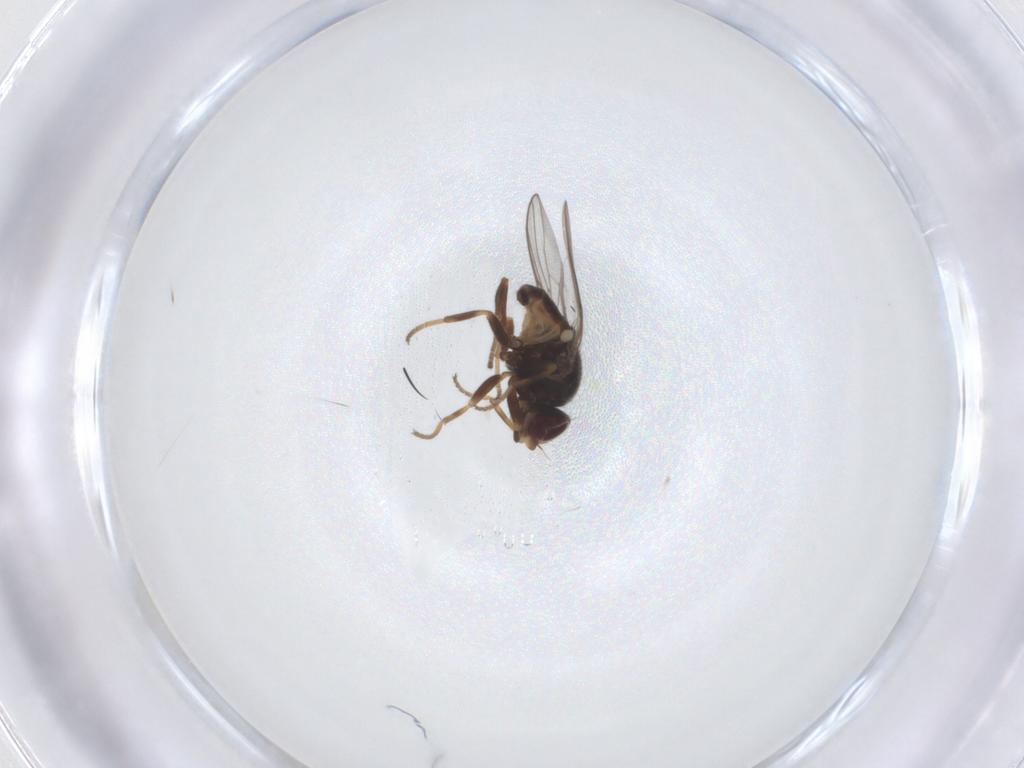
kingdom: Animalia
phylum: Arthropoda
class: Insecta
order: Diptera
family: Chloropidae
